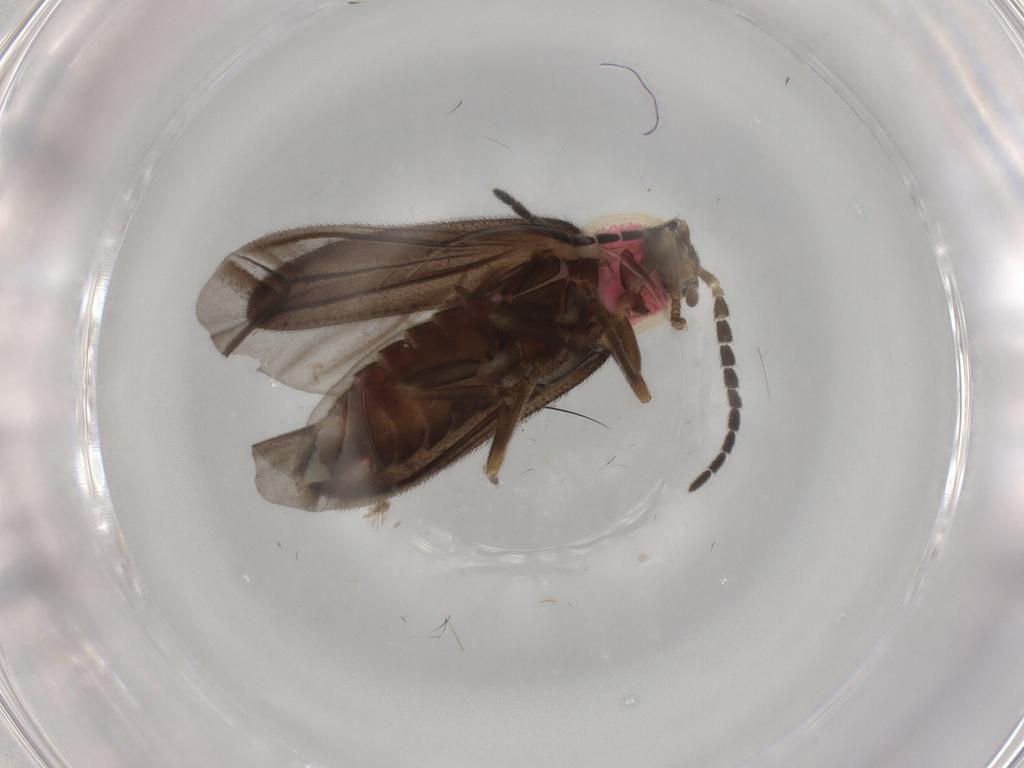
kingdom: Animalia
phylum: Arthropoda
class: Insecta
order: Coleoptera
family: Lampyridae
